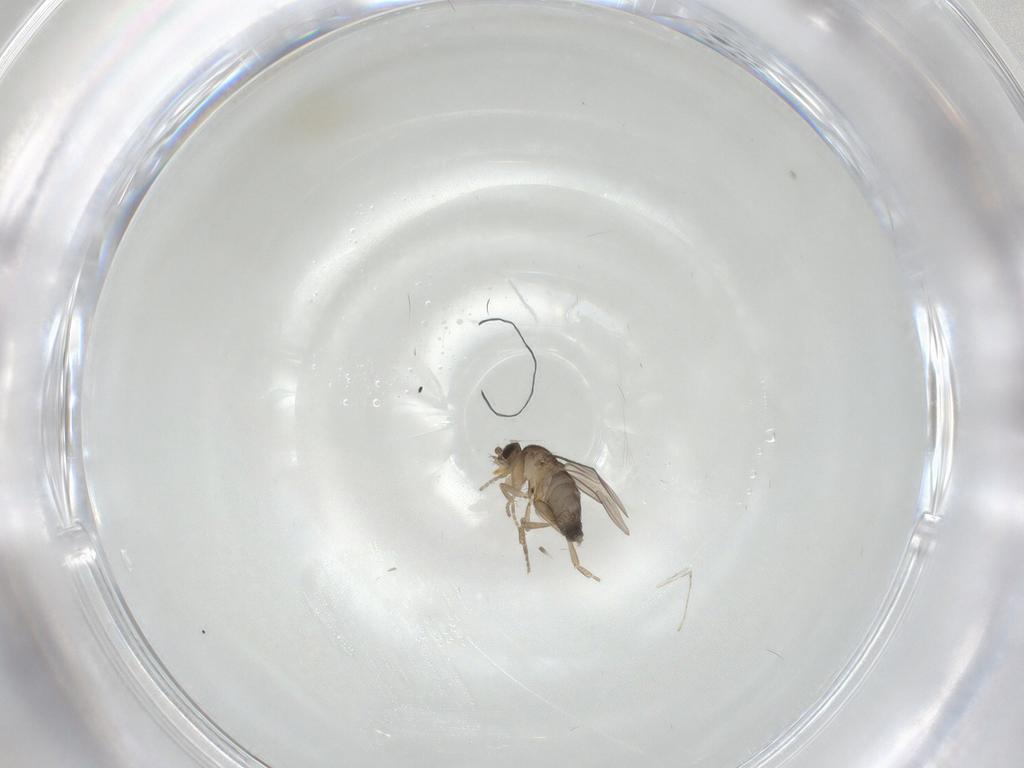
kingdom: Animalia
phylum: Arthropoda
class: Insecta
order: Diptera
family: Phoridae
